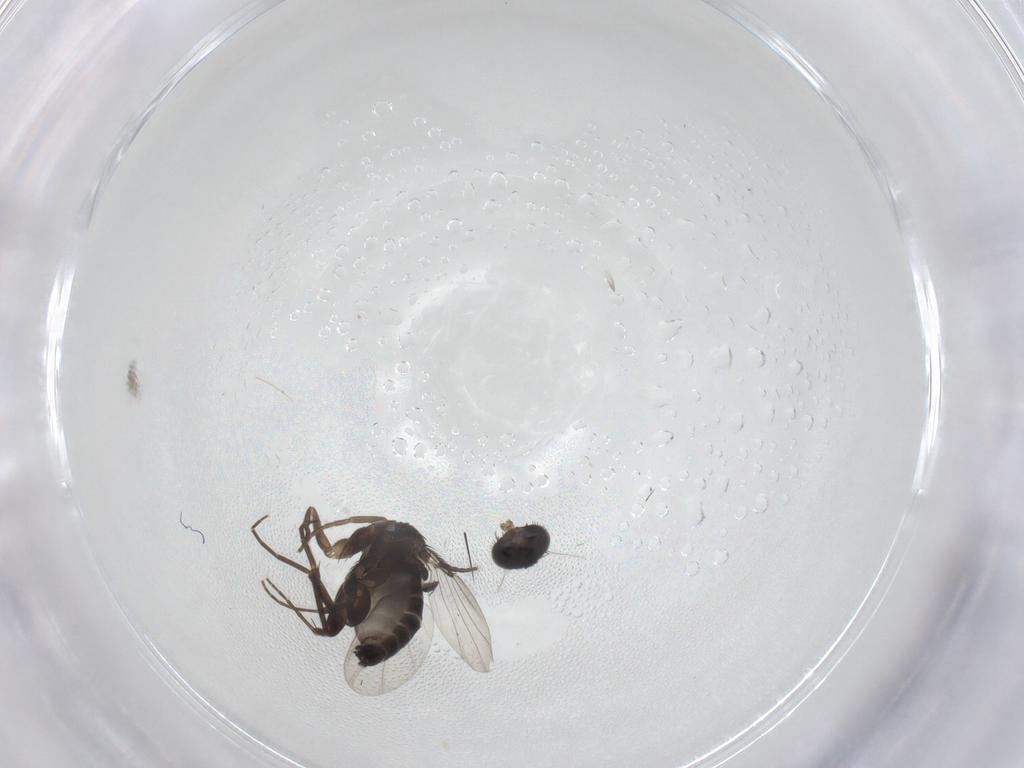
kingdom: Animalia
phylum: Arthropoda
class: Insecta
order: Diptera
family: Phoridae
